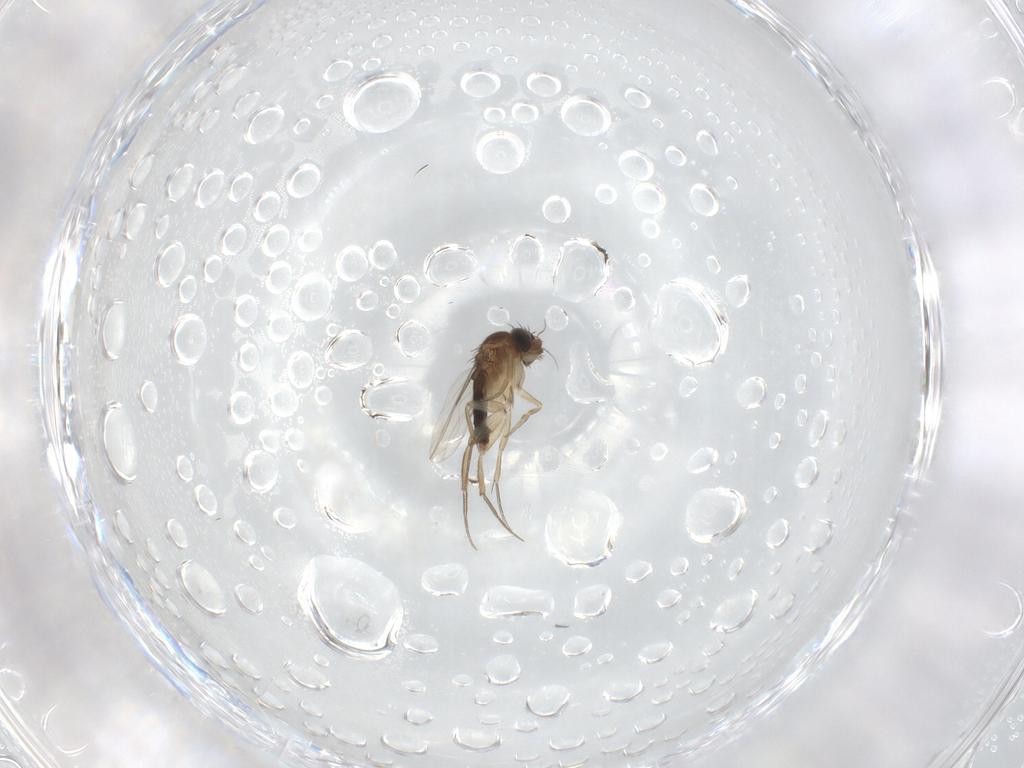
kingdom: Animalia
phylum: Arthropoda
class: Insecta
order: Diptera
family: Phoridae
